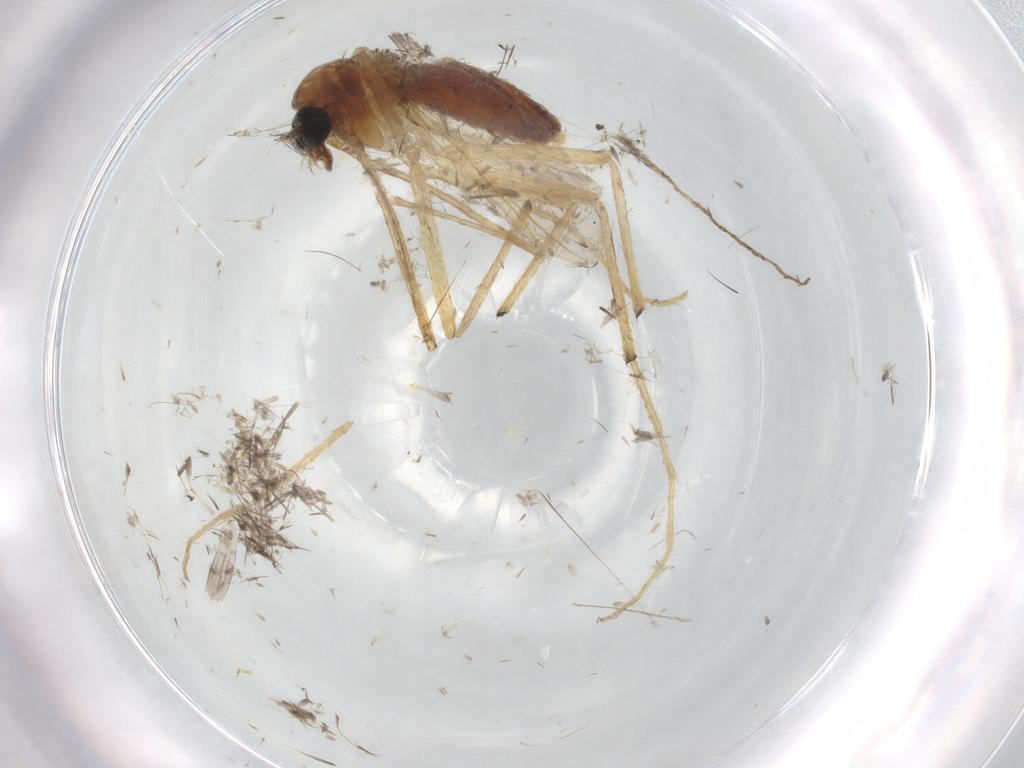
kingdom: Animalia
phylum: Arthropoda
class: Insecta
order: Diptera
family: Chironomidae
